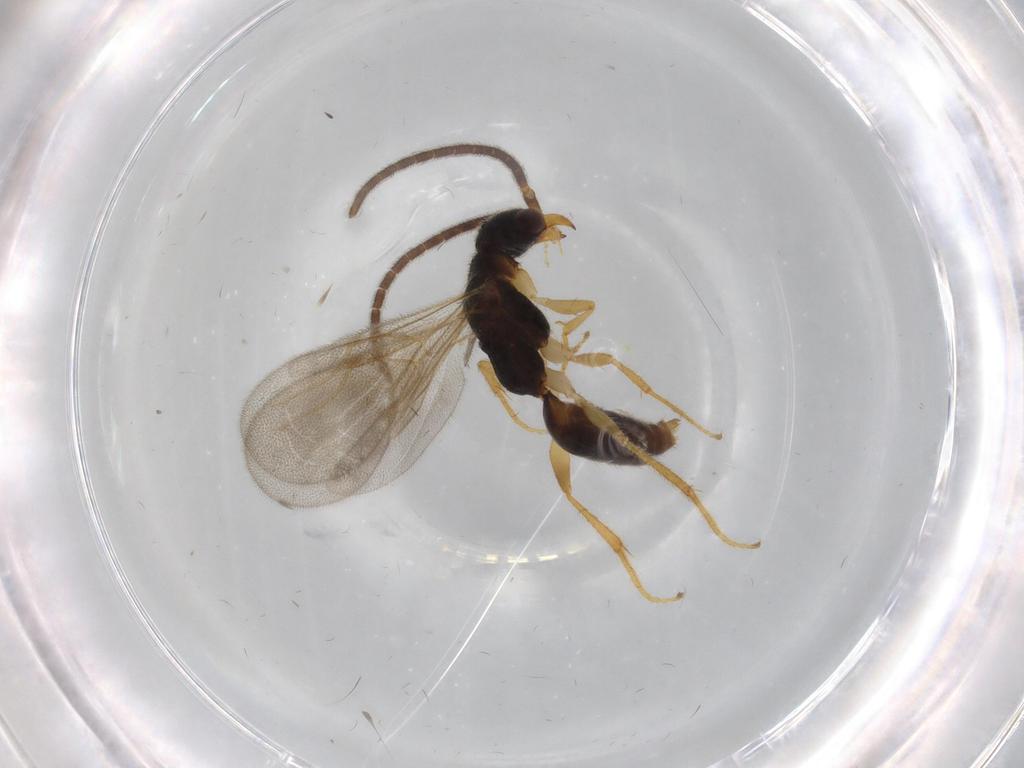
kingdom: Animalia
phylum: Arthropoda
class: Insecta
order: Hymenoptera
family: Bethylidae
